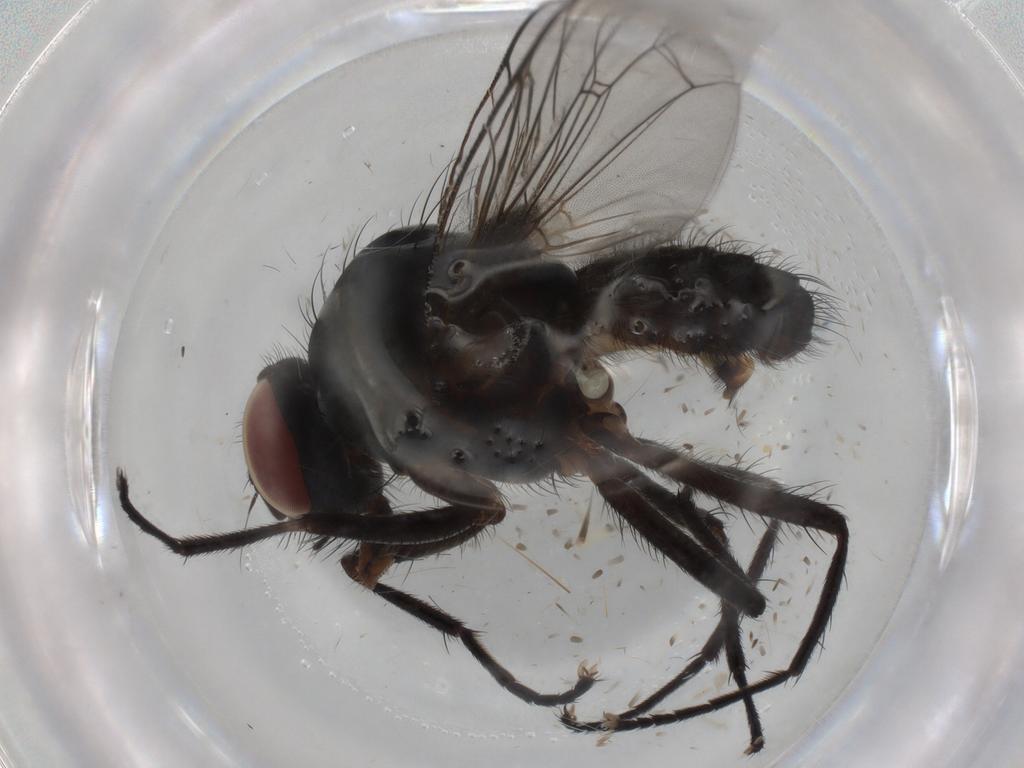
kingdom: Animalia
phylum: Arthropoda
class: Insecta
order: Diptera
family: Anthomyiidae
